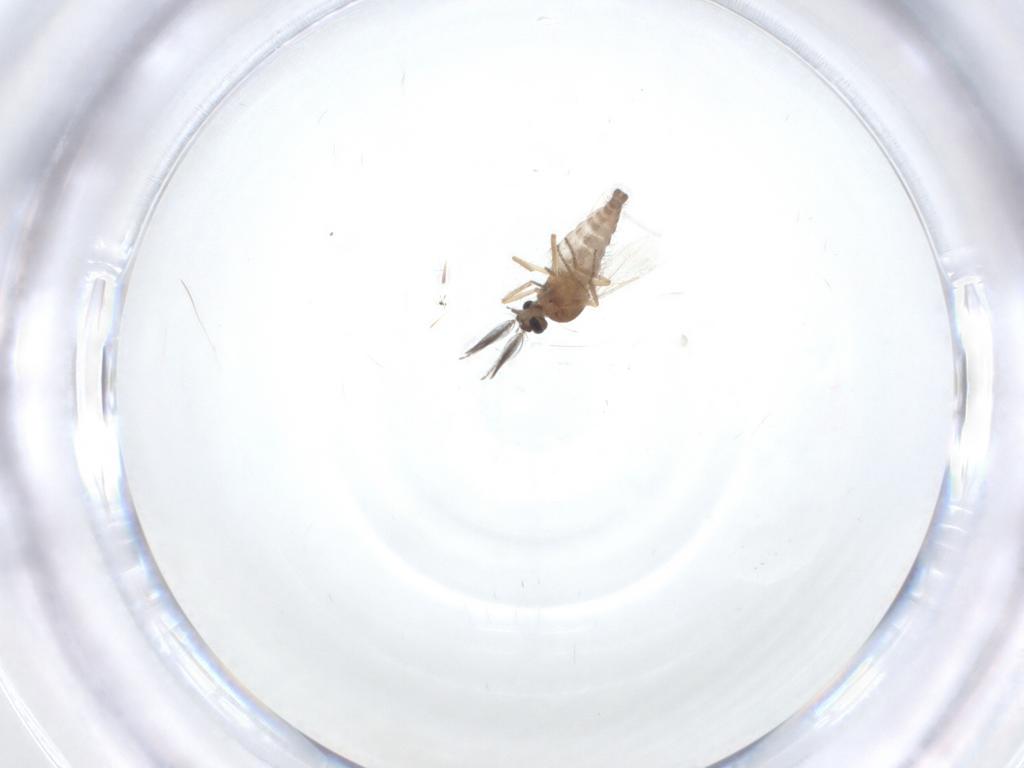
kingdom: Animalia
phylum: Arthropoda
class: Insecta
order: Diptera
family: Ceratopogonidae
